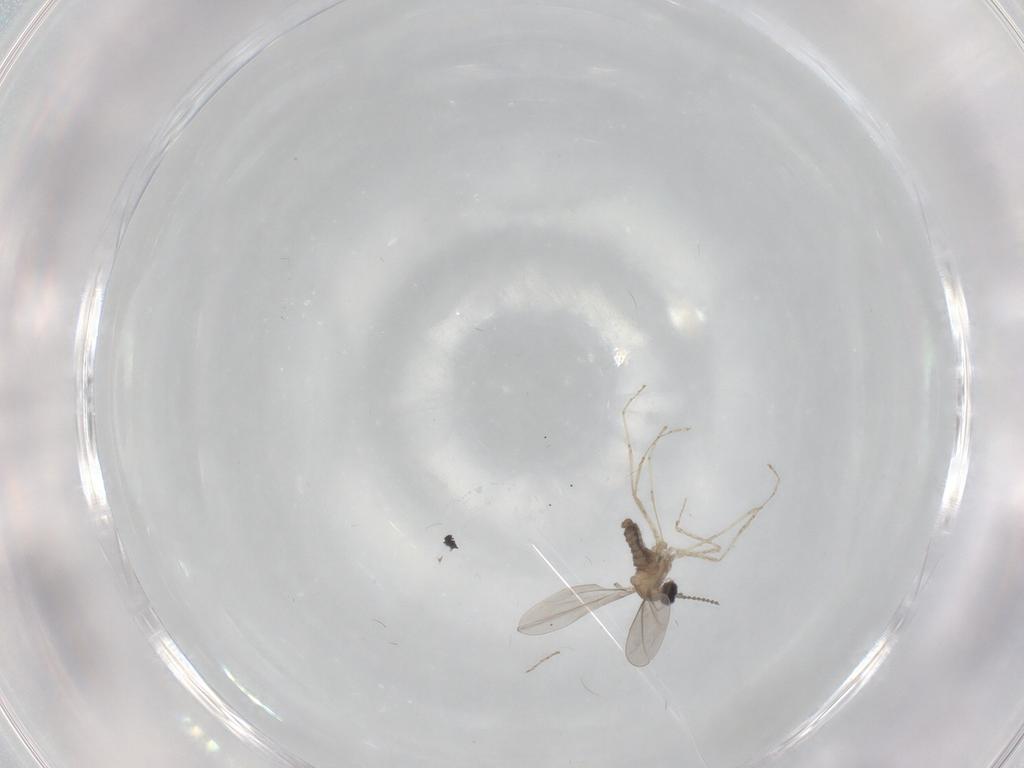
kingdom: Animalia
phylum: Arthropoda
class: Insecta
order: Diptera
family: Cecidomyiidae
